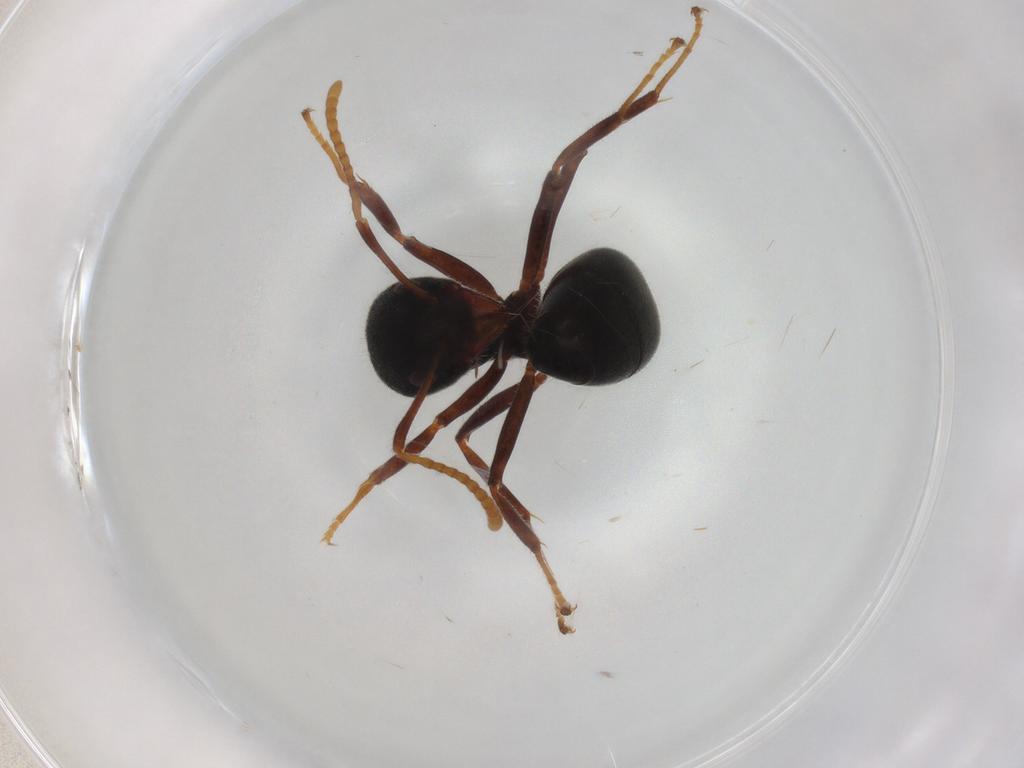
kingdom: Animalia
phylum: Arthropoda
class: Insecta
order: Hymenoptera
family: Formicidae
